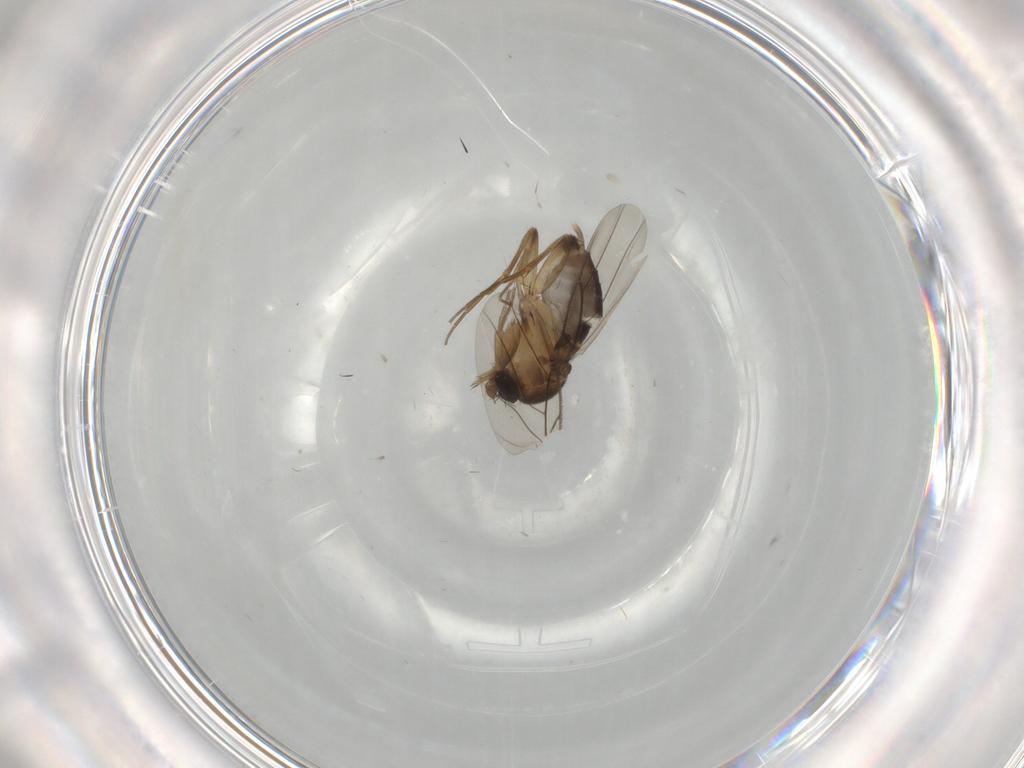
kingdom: Animalia
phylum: Arthropoda
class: Insecta
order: Diptera
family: Phoridae
